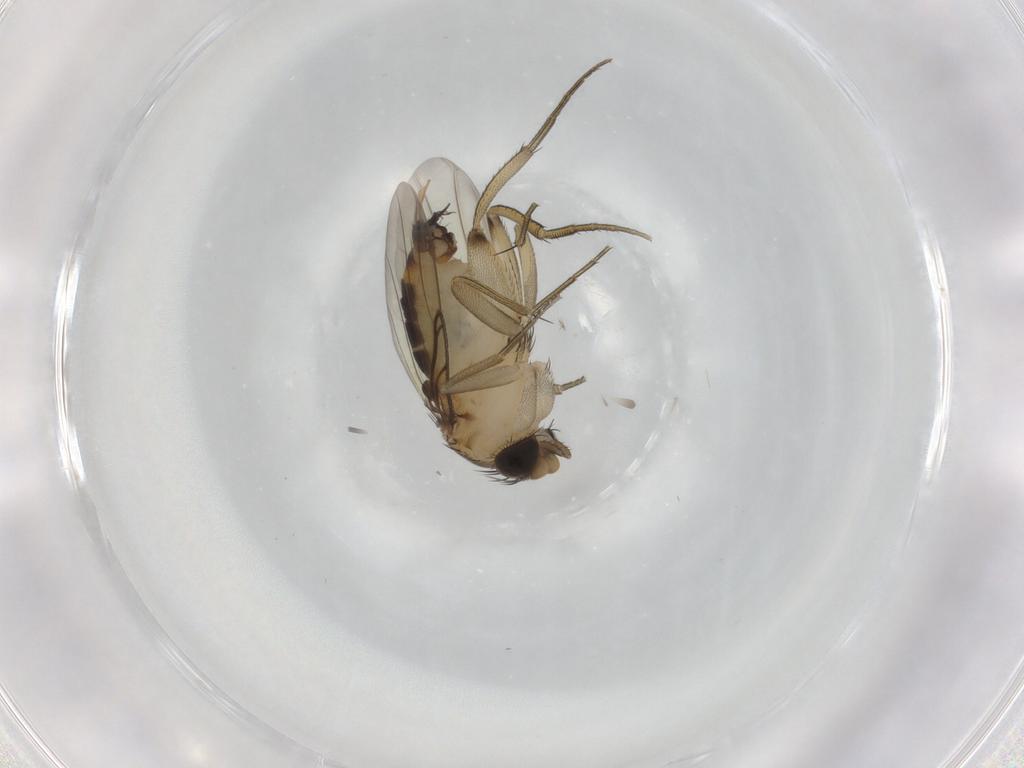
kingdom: Animalia
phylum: Arthropoda
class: Insecta
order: Diptera
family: Phoridae
